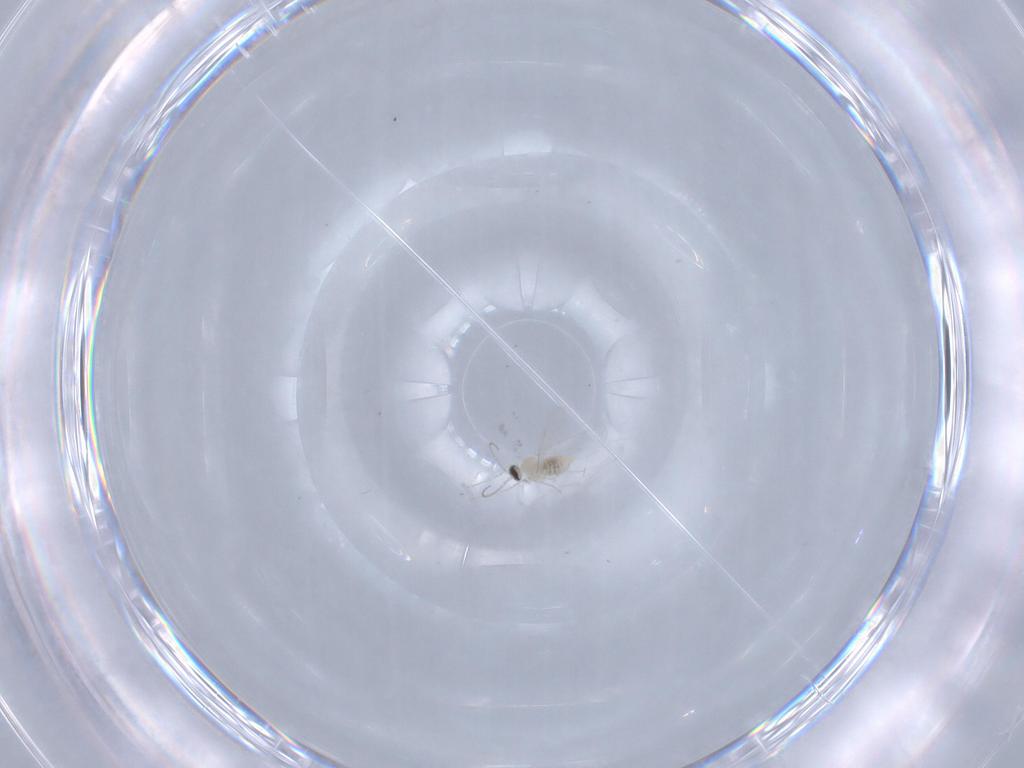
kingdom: Animalia
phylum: Arthropoda
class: Insecta
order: Diptera
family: Cecidomyiidae
